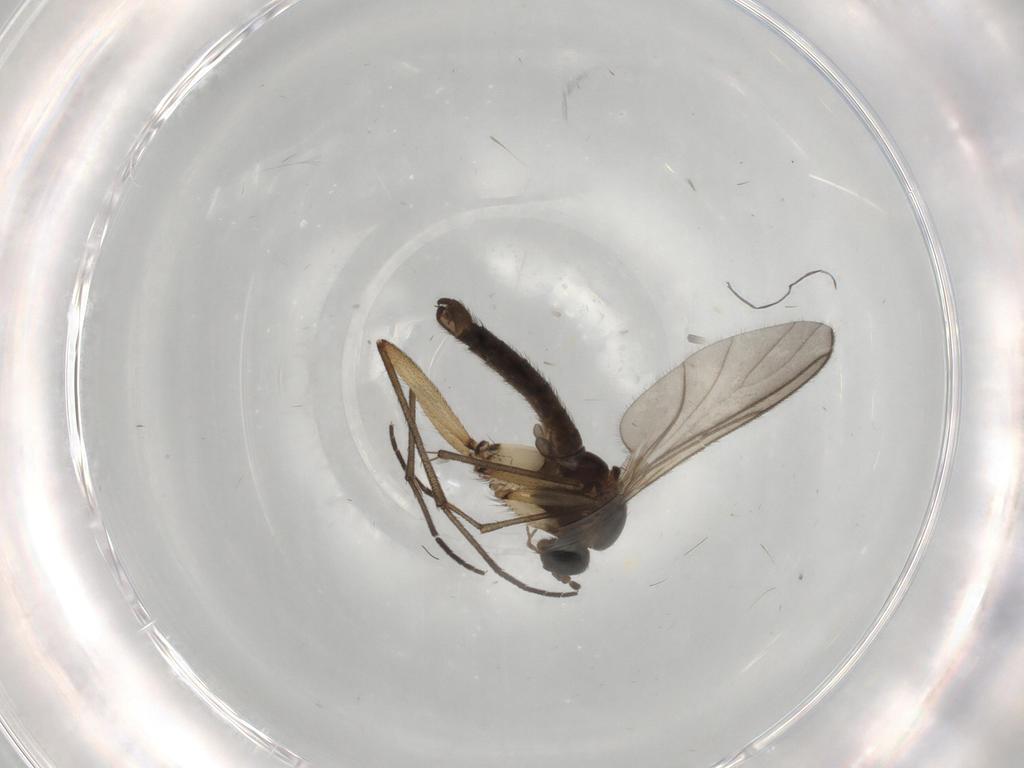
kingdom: Animalia
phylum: Arthropoda
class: Insecta
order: Diptera
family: Sciaridae
